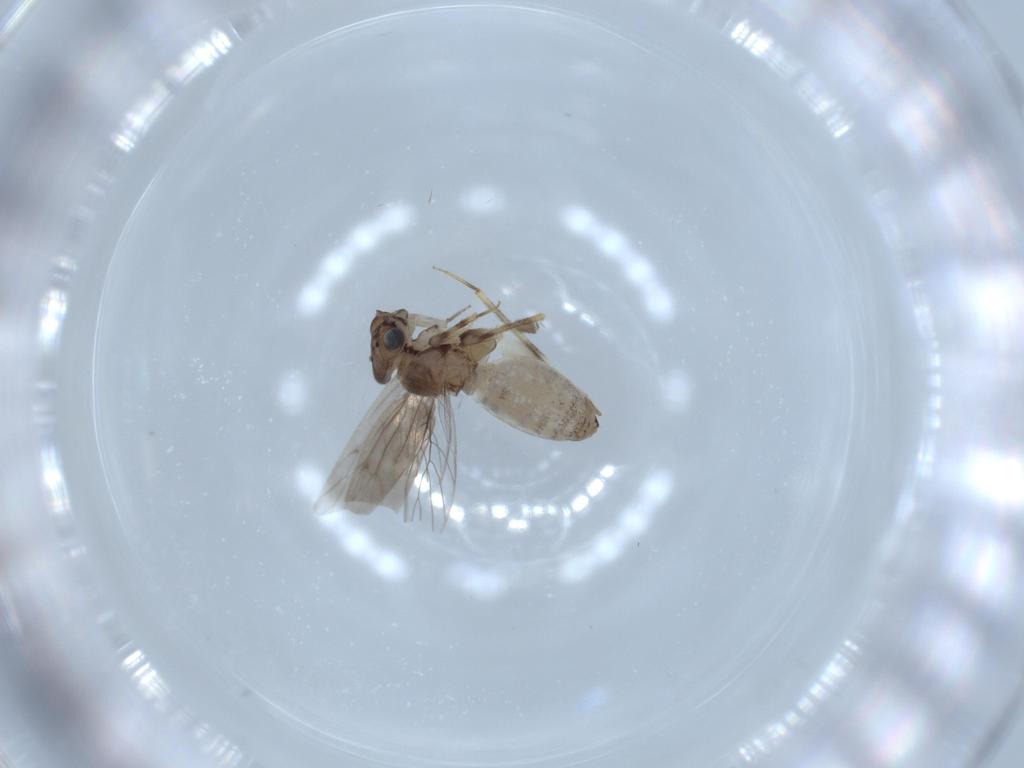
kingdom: Animalia
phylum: Arthropoda
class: Insecta
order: Psocodea
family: Lepidopsocidae
